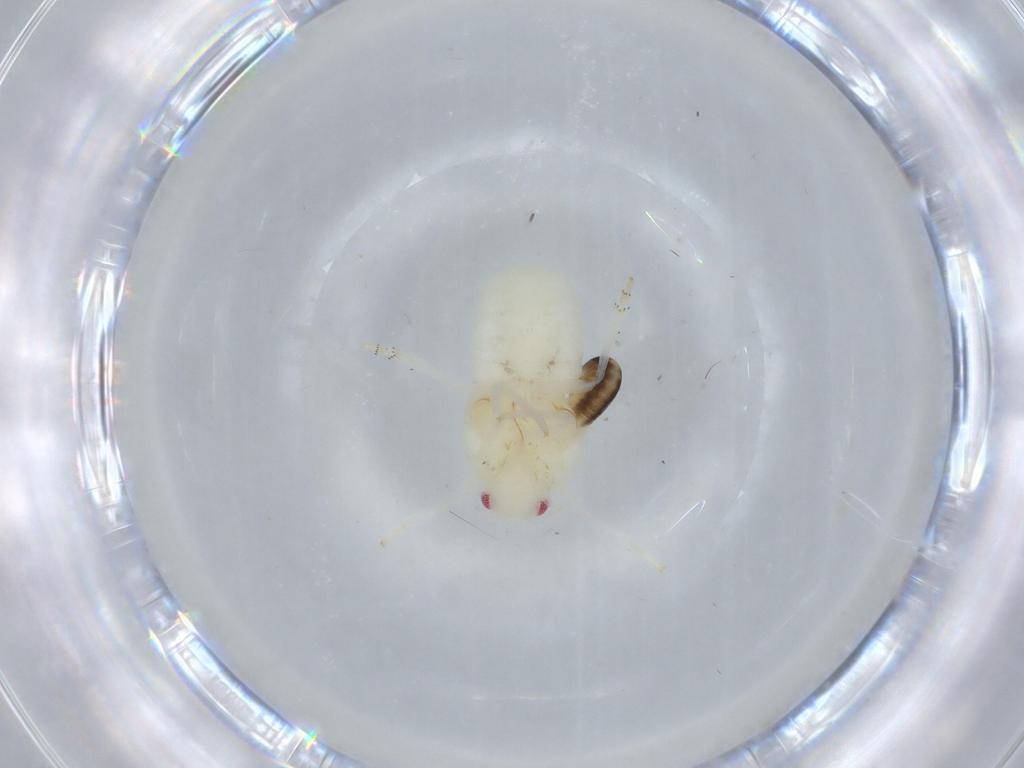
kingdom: Animalia
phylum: Arthropoda
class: Insecta
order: Hemiptera
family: Flatidae
